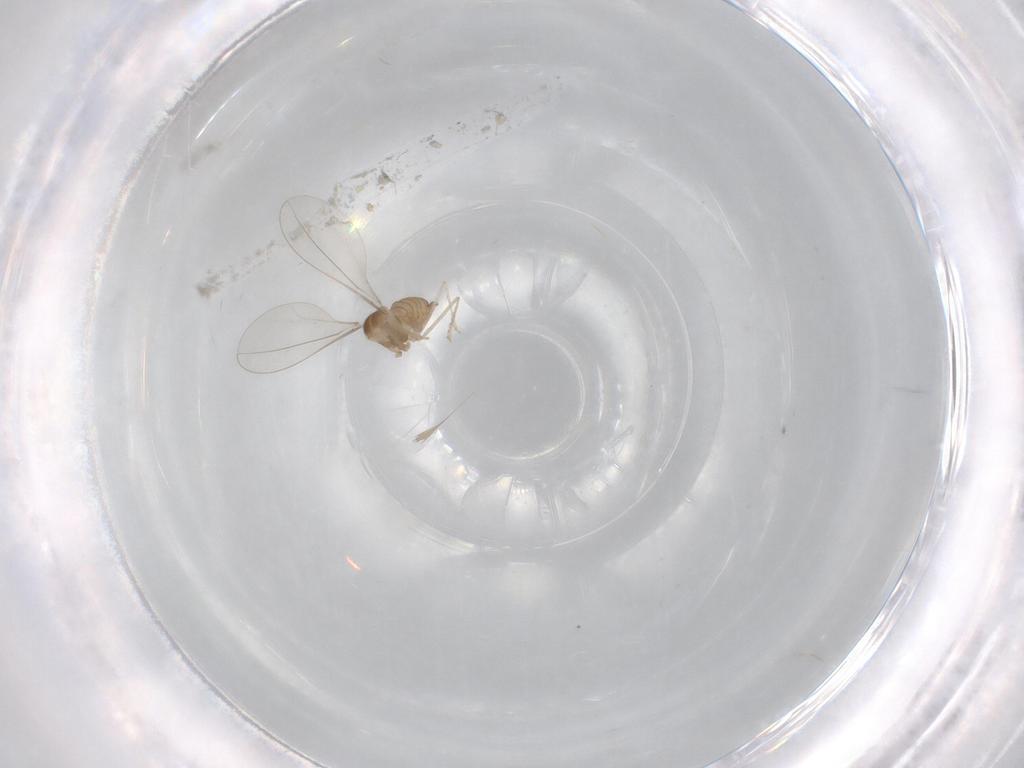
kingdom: Animalia
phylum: Arthropoda
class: Insecta
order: Diptera
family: Cecidomyiidae
